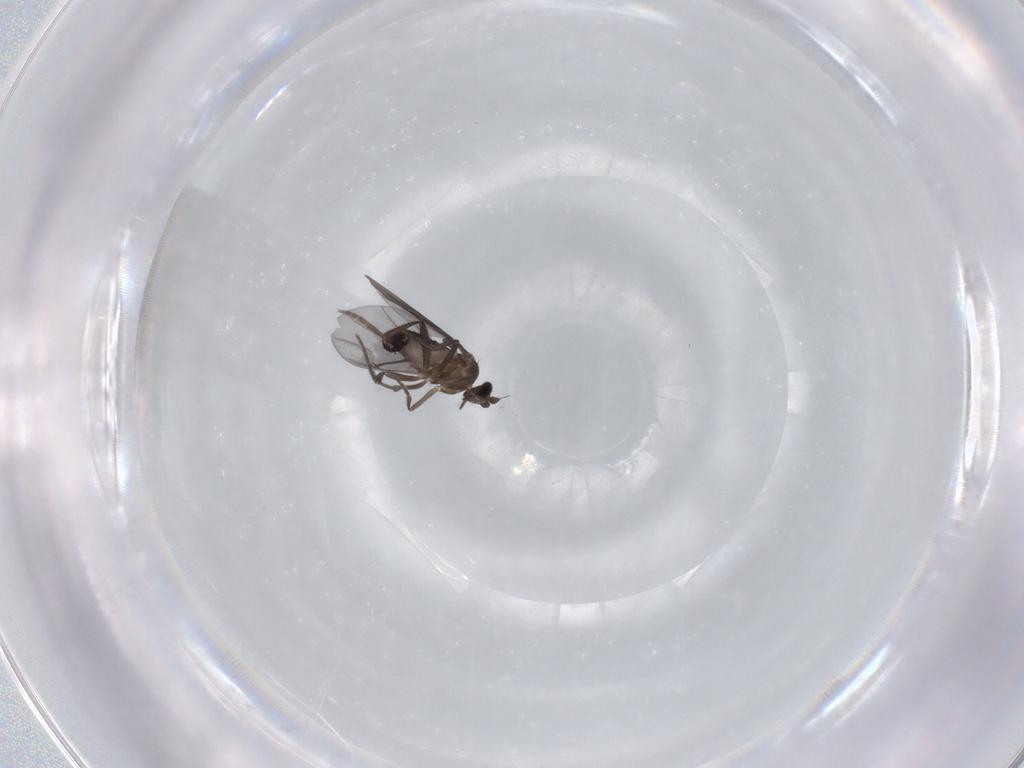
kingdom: Animalia
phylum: Arthropoda
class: Insecta
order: Diptera
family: Phoridae
